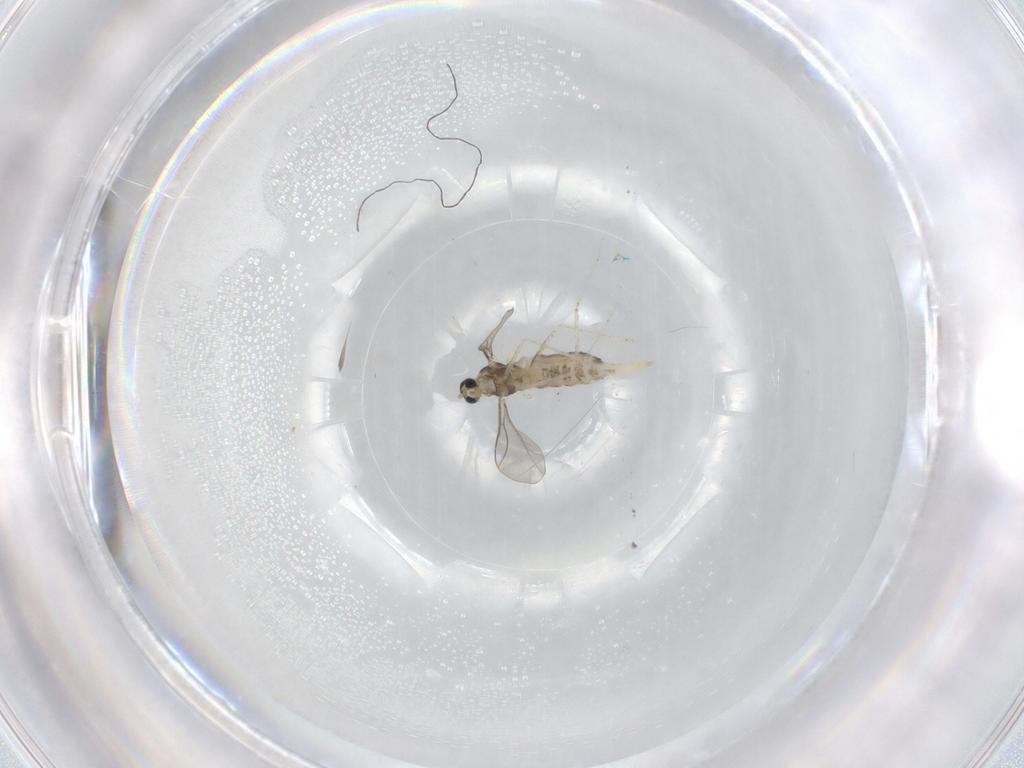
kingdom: Animalia
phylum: Arthropoda
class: Insecta
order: Diptera
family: Cecidomyiidae
